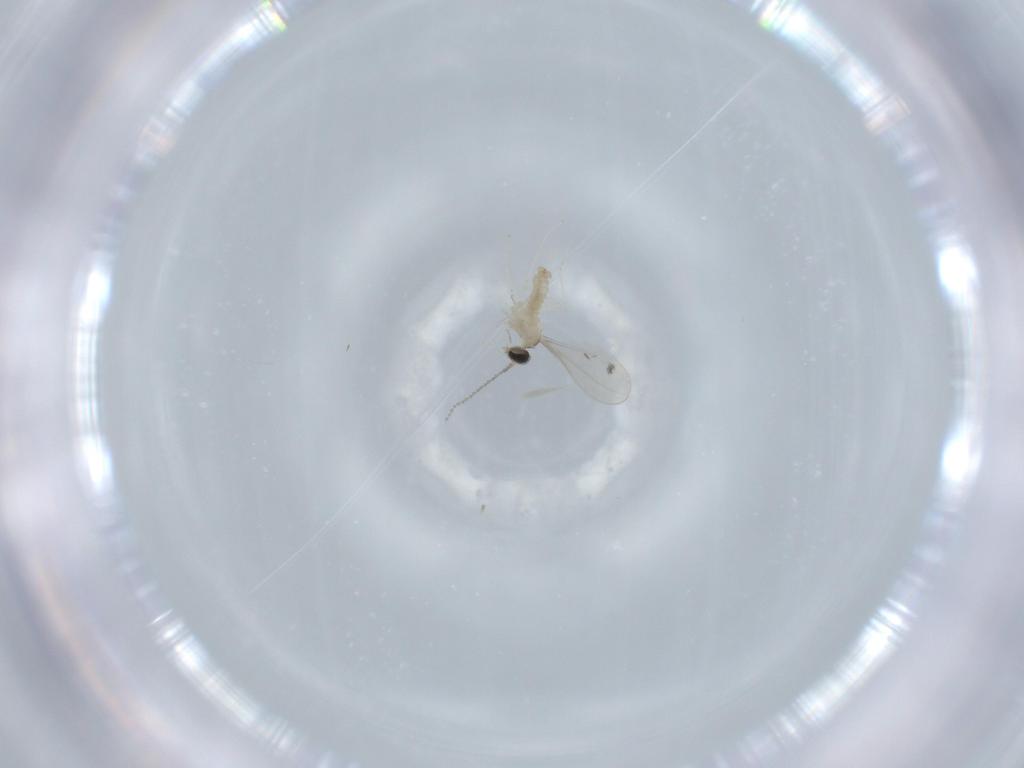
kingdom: Animalia
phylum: Arthropoda
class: Insecta
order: Diptera
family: Cecidomyiidae
